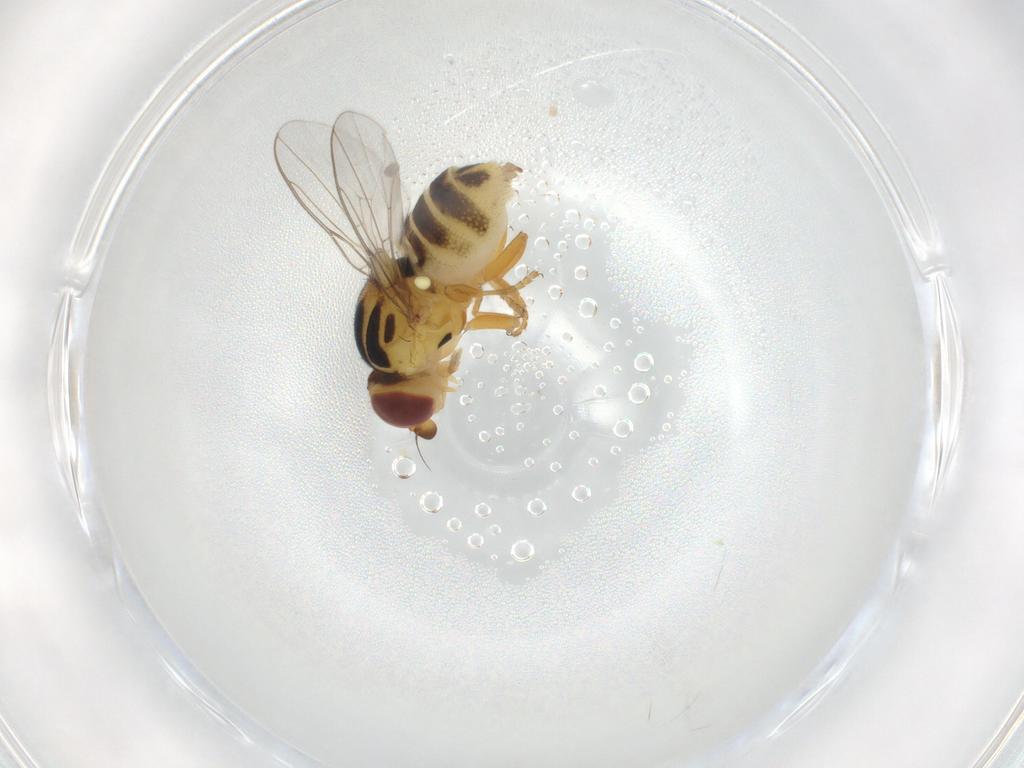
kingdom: Animalia
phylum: Arthropoda
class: Insecta
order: Diptera
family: Chloropidae
